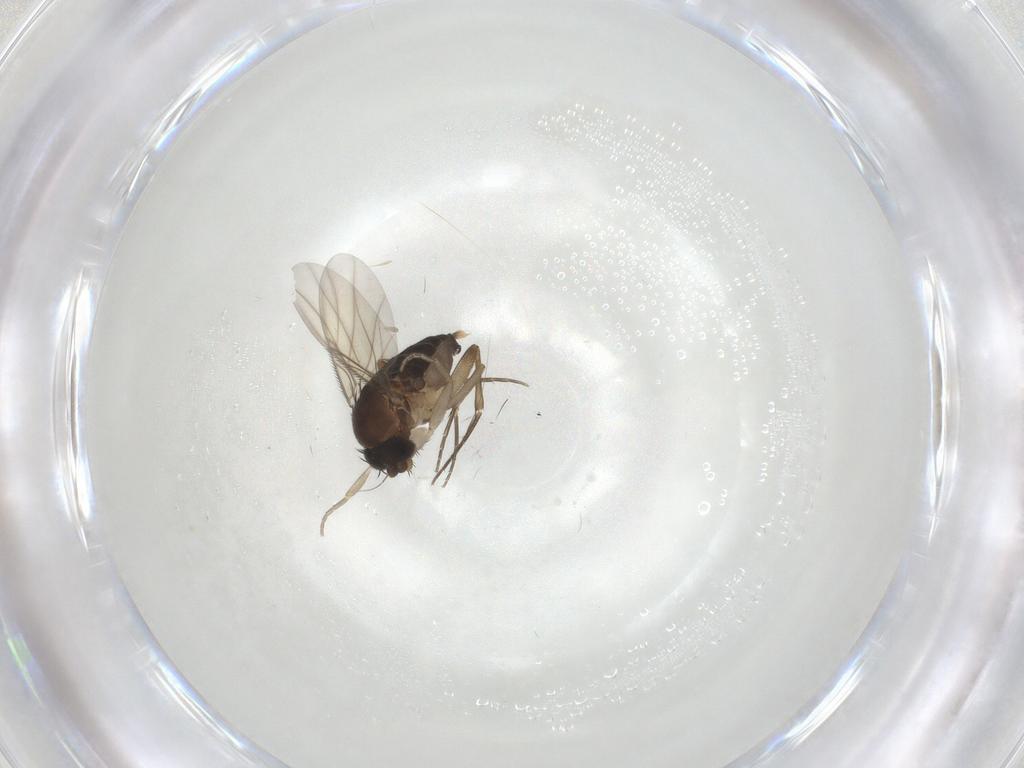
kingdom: Animalia
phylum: Arthropoda
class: Insecta
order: Diptera
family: Phoridae
